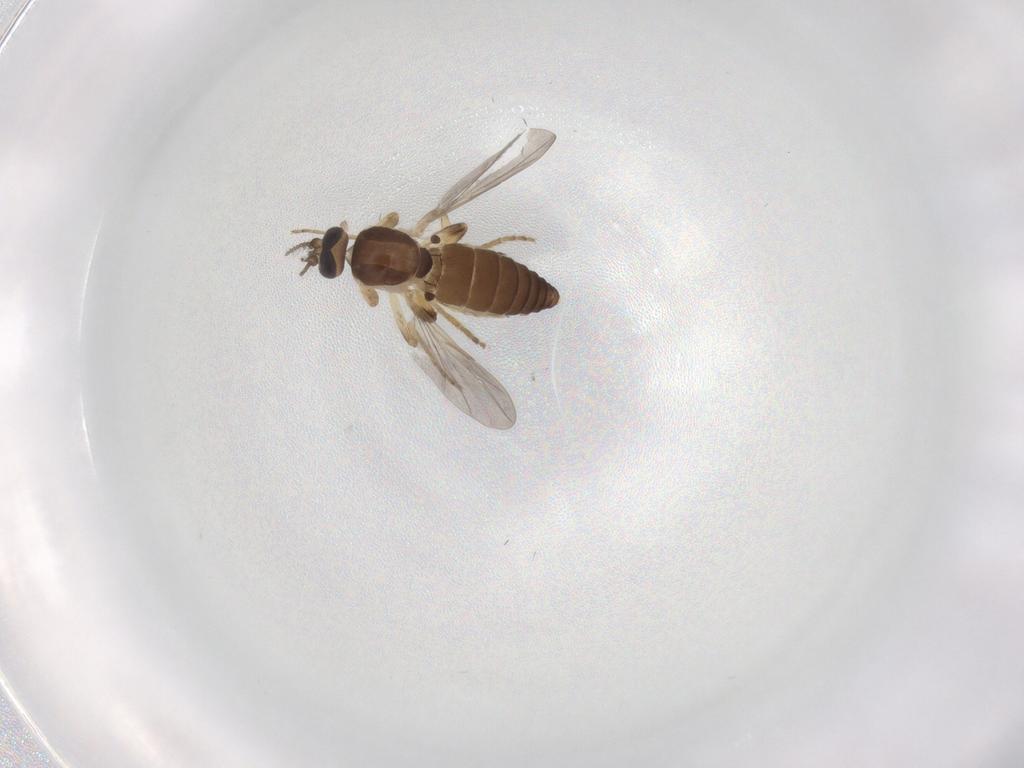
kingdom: Animalia
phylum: Arthropoda
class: Insecta
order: Diptera
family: Ceratopogonidae
